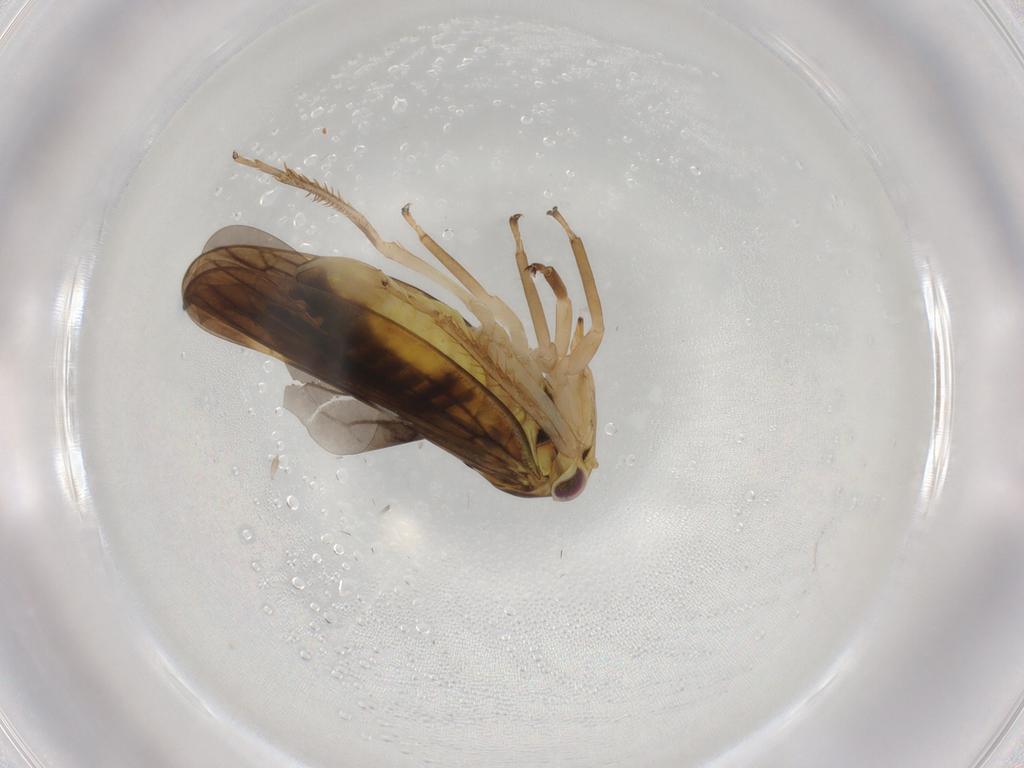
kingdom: Animalia
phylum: Arthropoda
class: Insecta
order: Hemiptera
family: Cicadellidae
